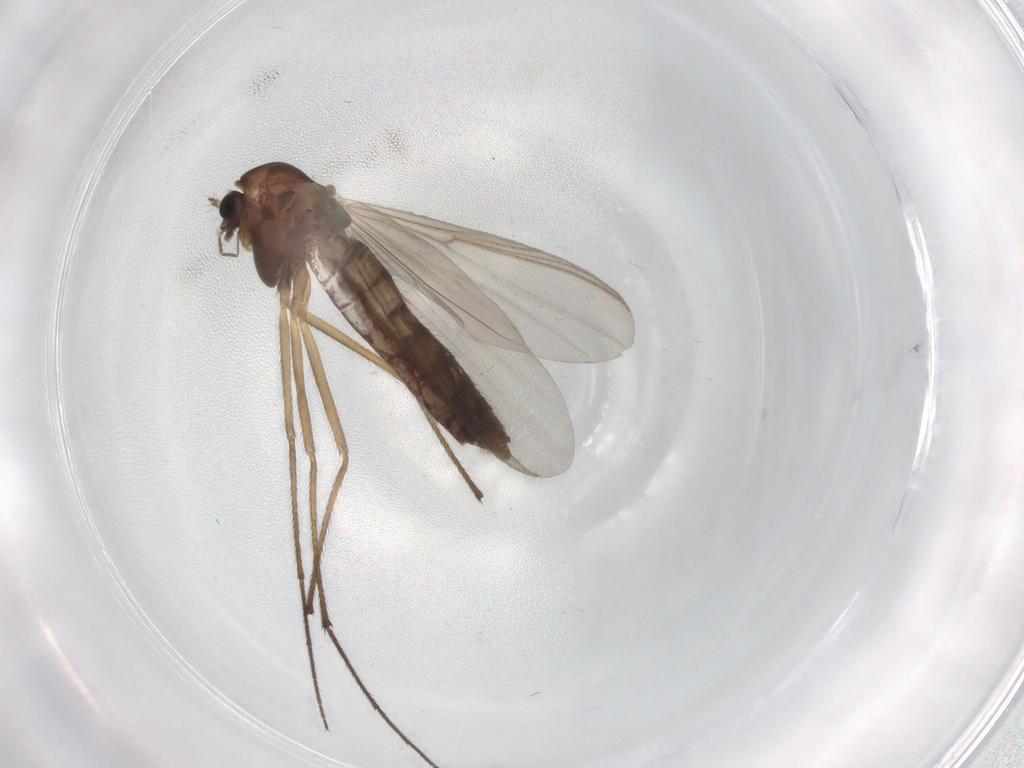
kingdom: Animalia
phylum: Arthropoda
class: Insecta
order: Diptera
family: Chironomidae
